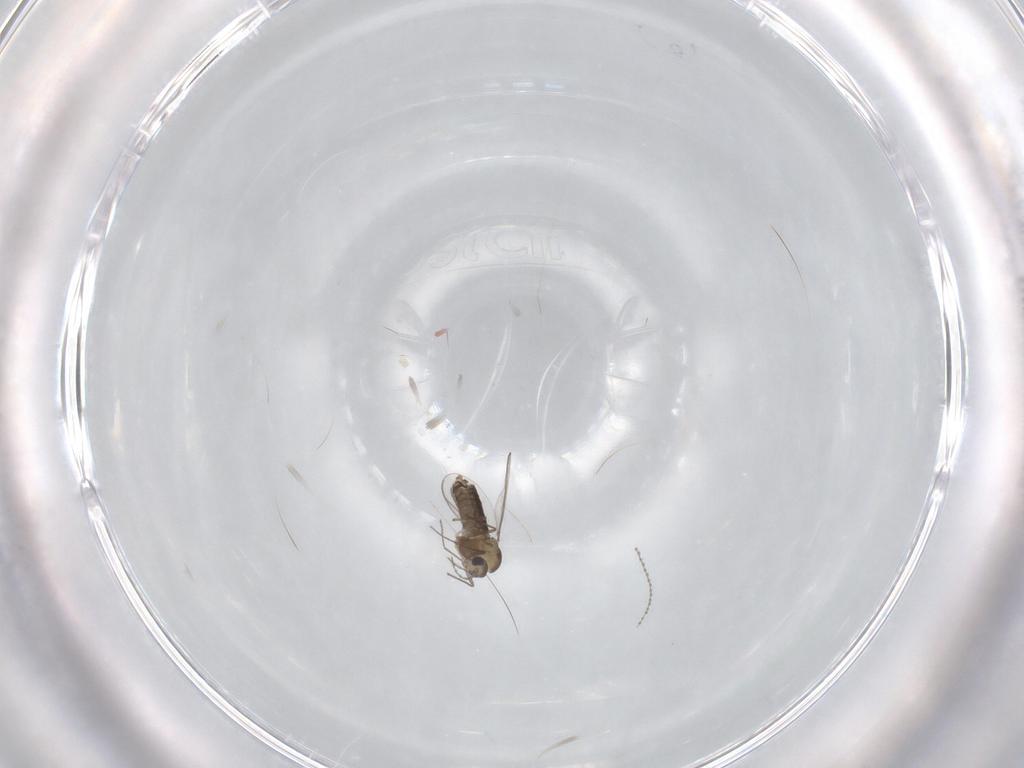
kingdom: Animalia
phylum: Arthropoda
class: Insecta
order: Diptera
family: Chironomidae
